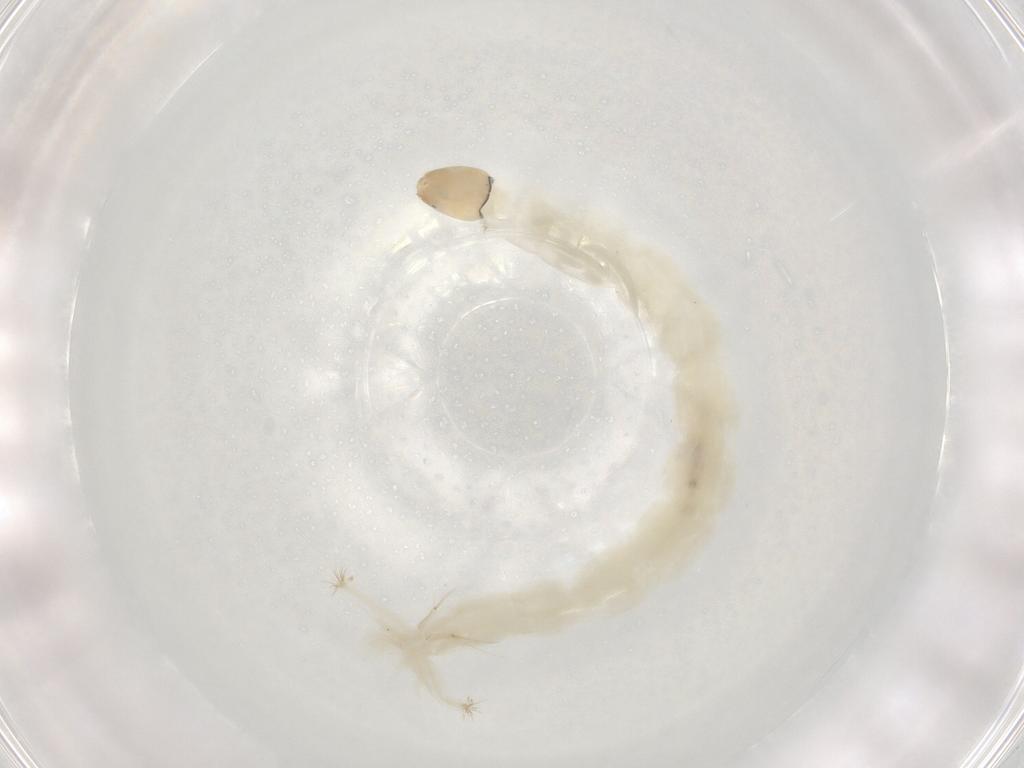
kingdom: Animalia
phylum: Arthropoda
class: Insecta
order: Diptera
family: Chironomidae
